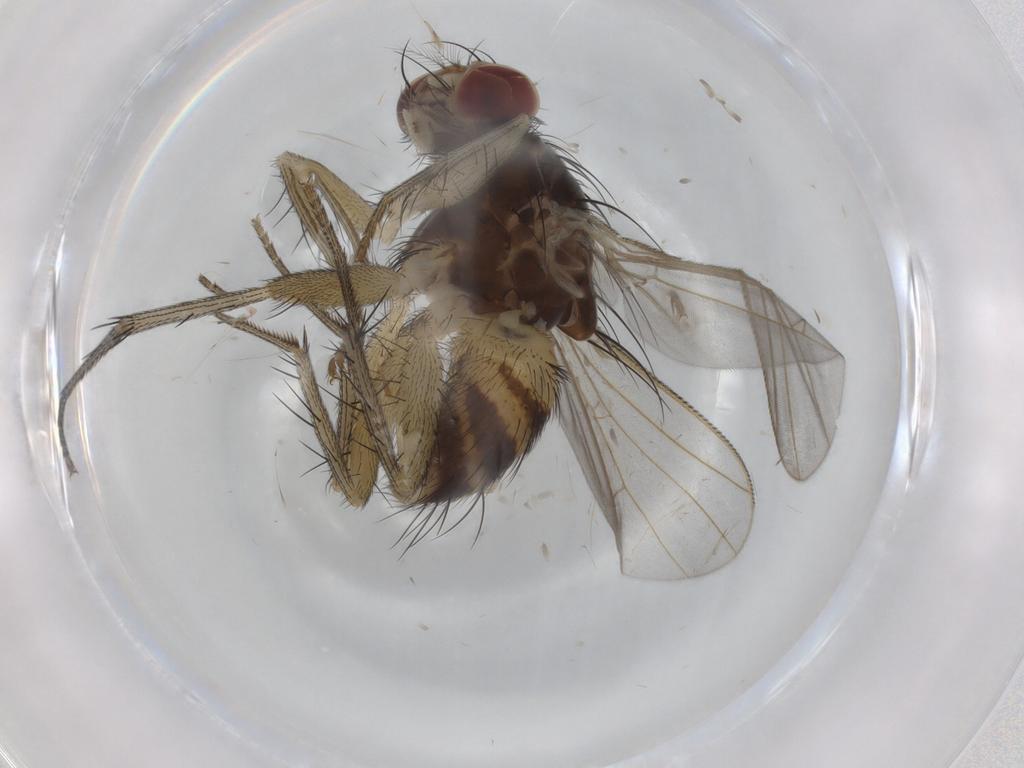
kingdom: Animalia
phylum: Arthropoda
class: Insecta
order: Diptera
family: Muscidae
